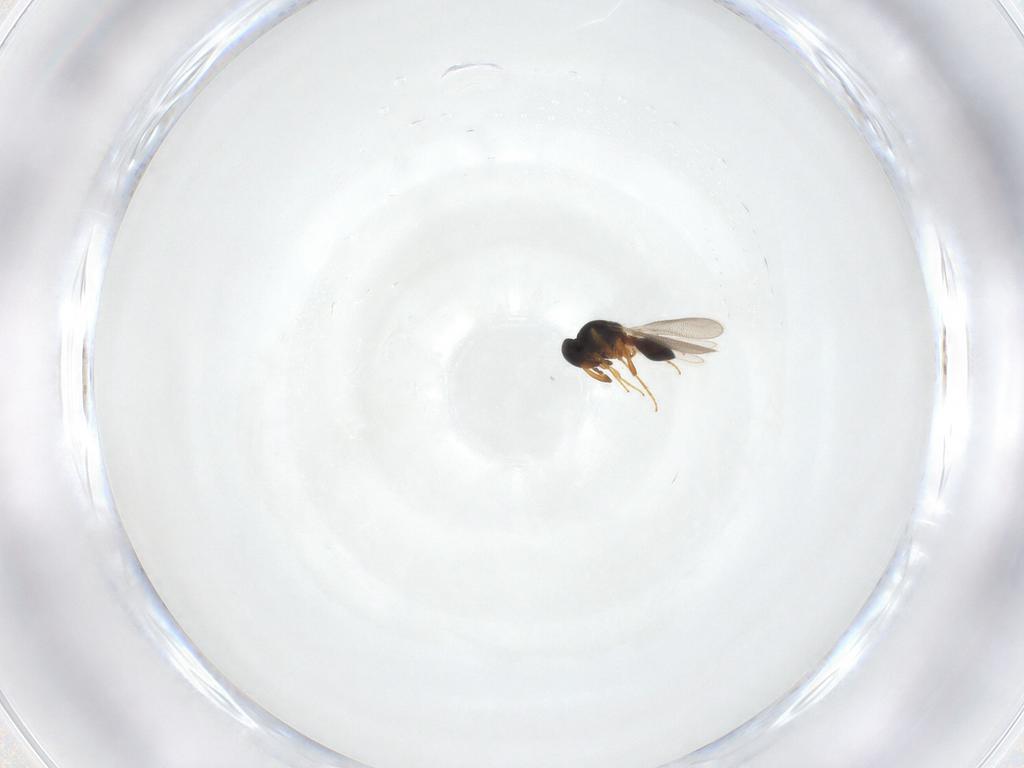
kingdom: Animalia
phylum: Arthropoda
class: Insecta
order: Hymenoptera
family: Platygastridae
